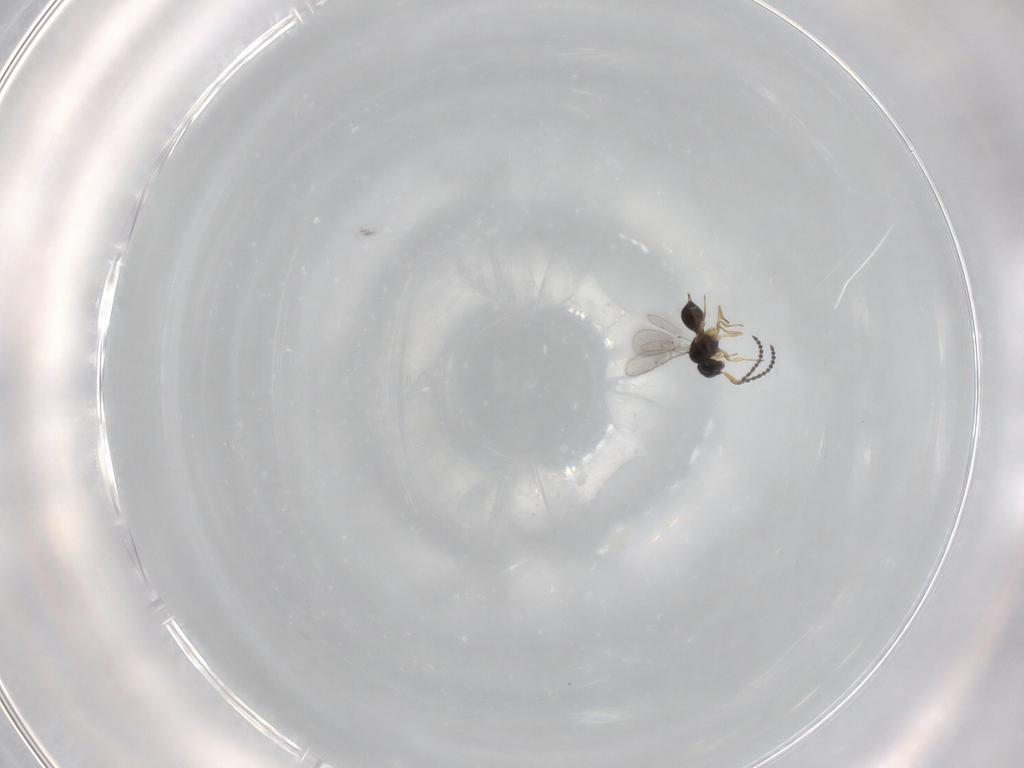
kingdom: Animalia
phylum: Arthropoda
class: Insecta
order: Hymenoptera
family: Scelionidae
